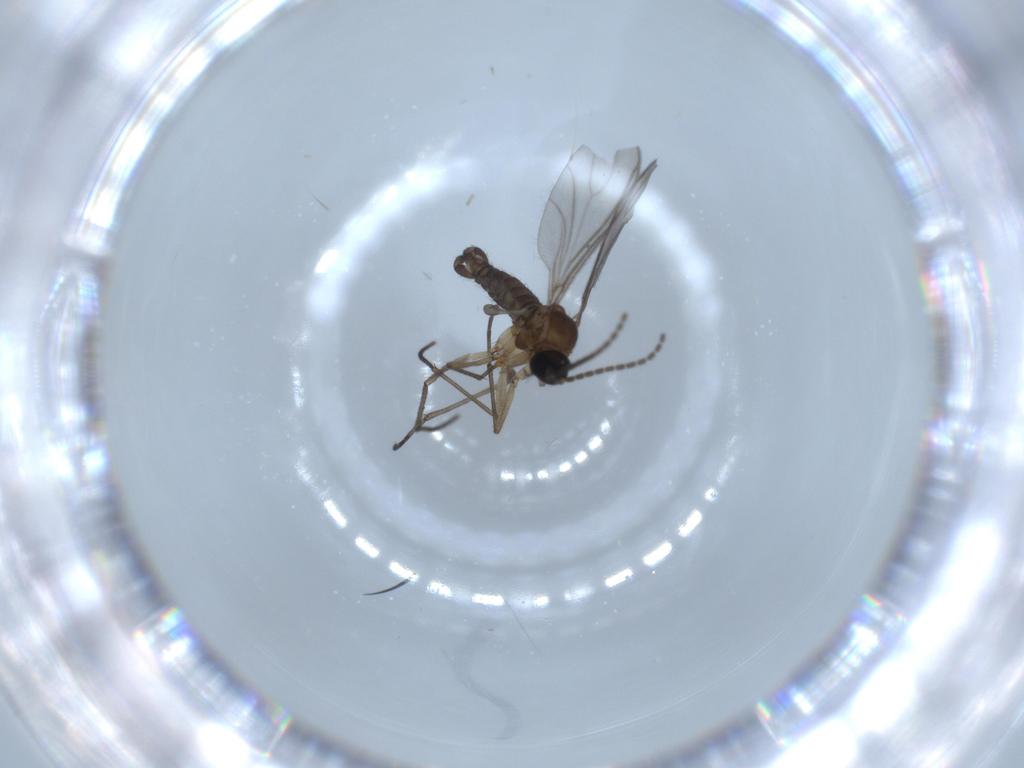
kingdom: Animalia
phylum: Arthropoda
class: Insecta
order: Diptera
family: Sciaridae
